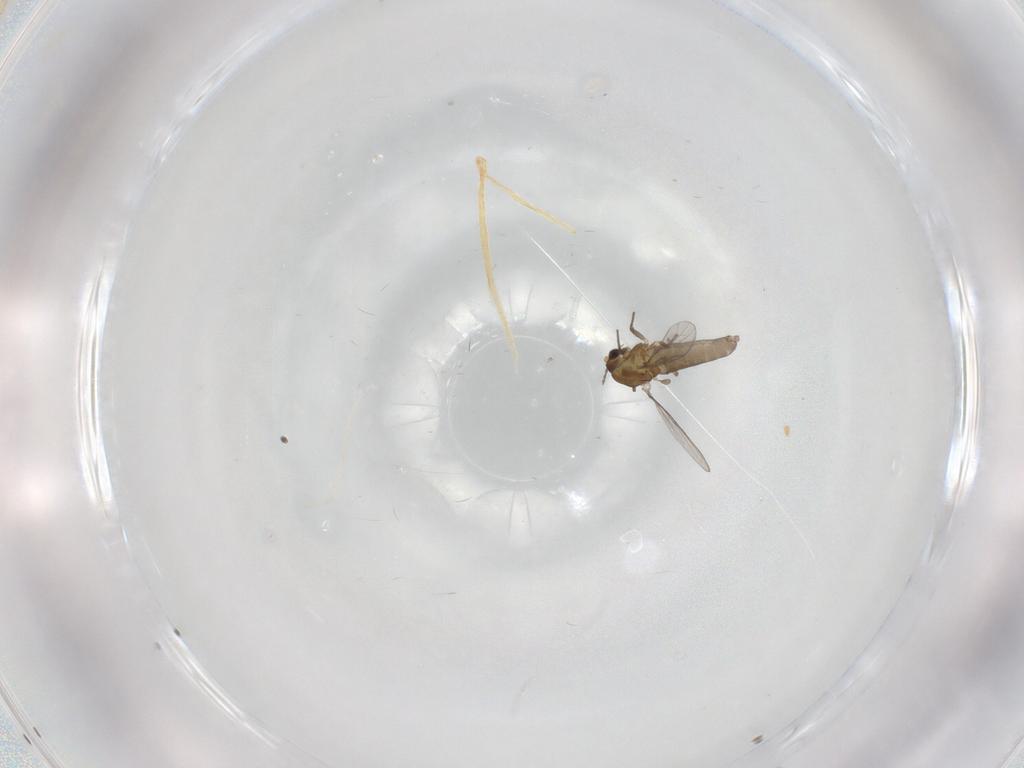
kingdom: Animalia
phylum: Arthropoda
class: Insecta
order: Diptera
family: Chironomidae
